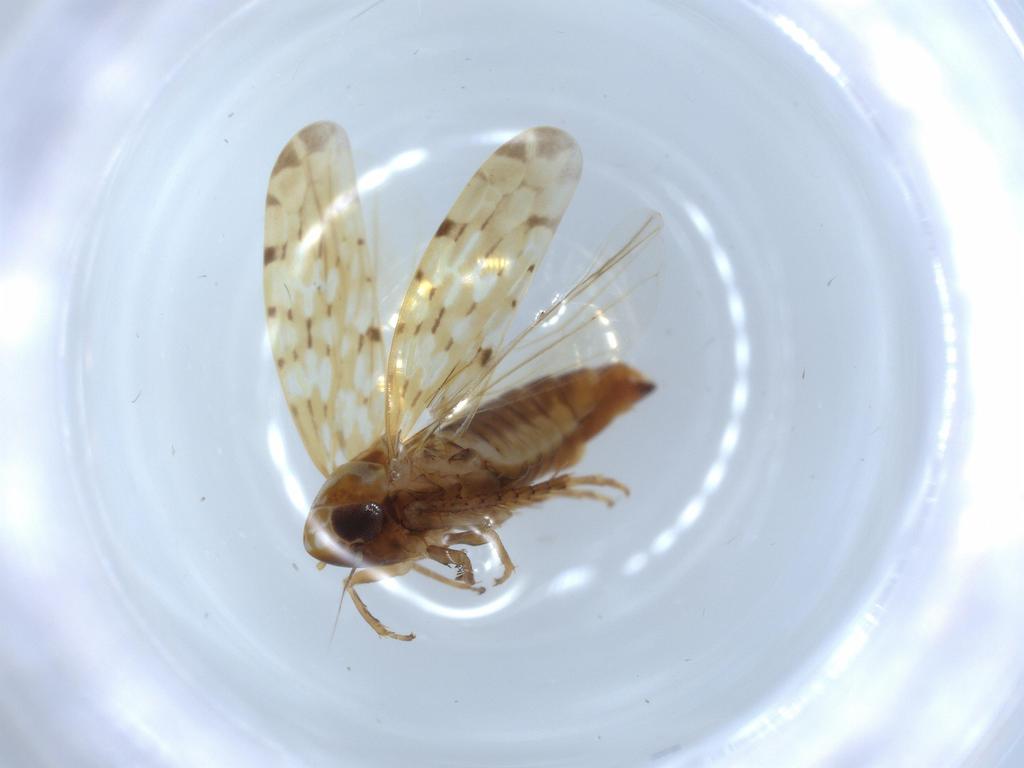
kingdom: Animalia
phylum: Arthropoda
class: Insecta
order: Hemiptera
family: Cicadellidae
